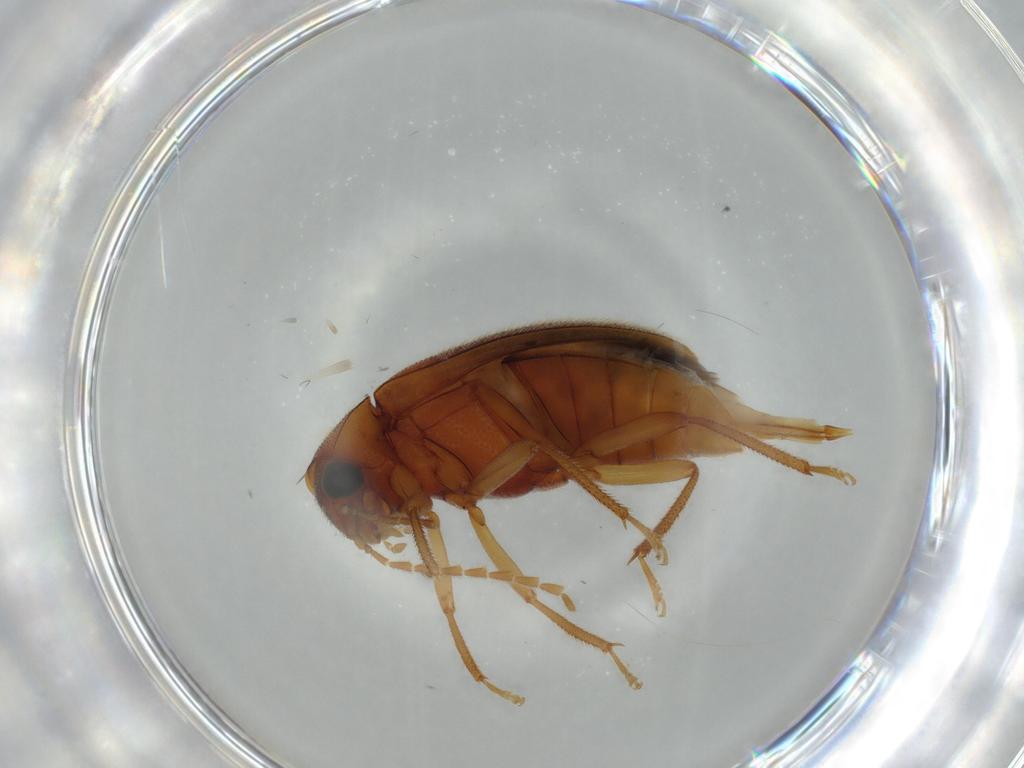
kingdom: Animalia
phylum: Arthropoda
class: Insecta
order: Coleoptera
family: Ptilodactylidae
